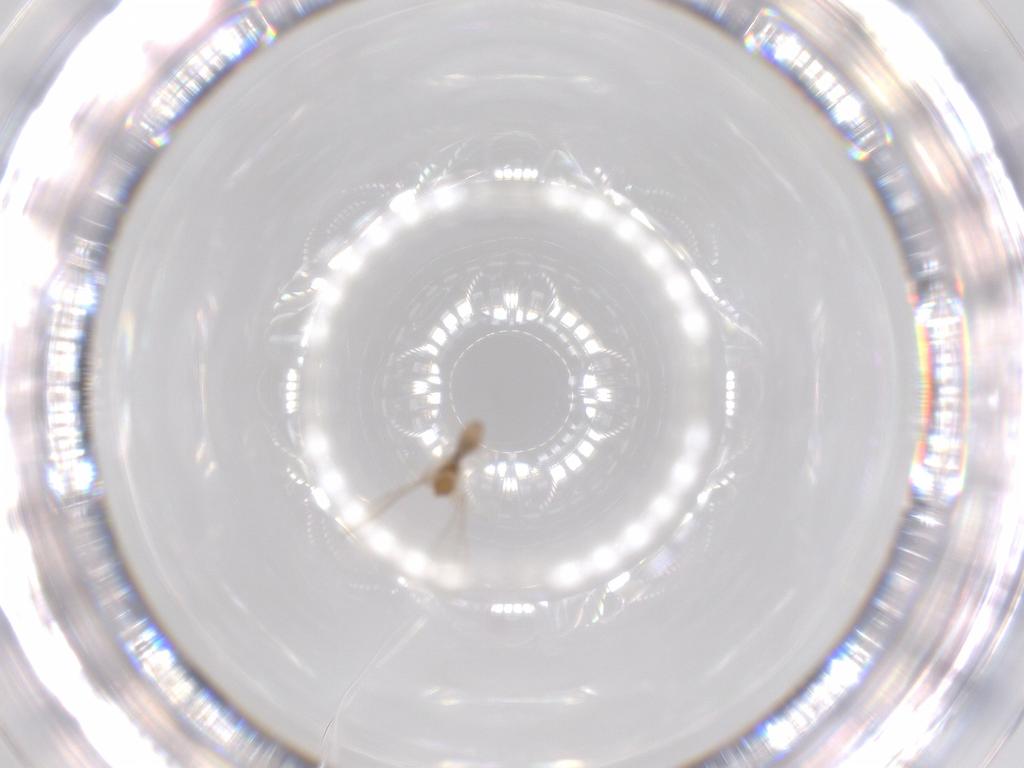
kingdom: Animalia
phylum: Arthropoda
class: Insecta
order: Diptera
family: Cecidomyiidae
